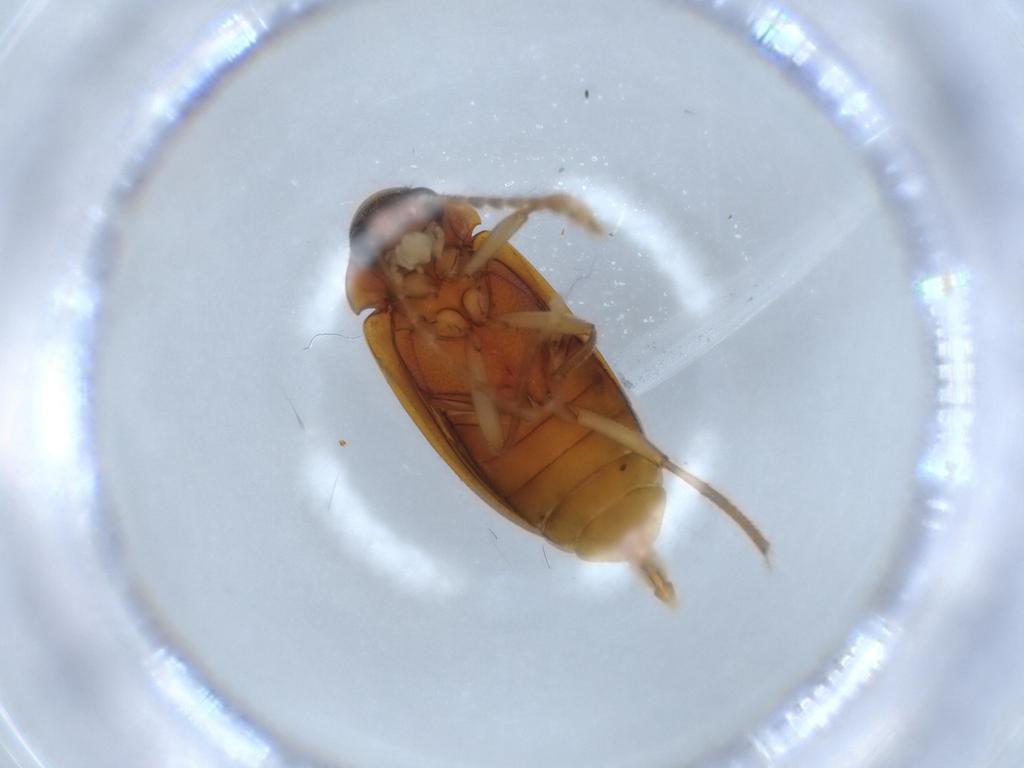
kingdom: Animalia
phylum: Arthropoda
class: Insecta
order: Coleoptera
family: Ptilodactylidae
